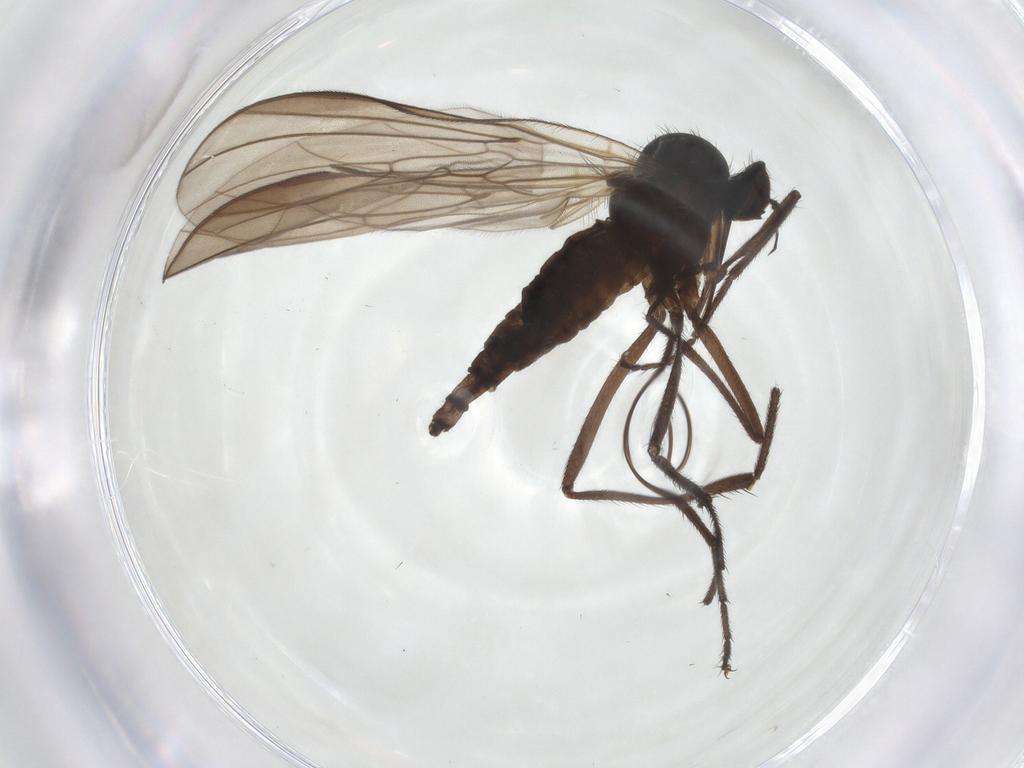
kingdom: Animalia
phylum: Arthropoda
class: Insecta
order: Diptera
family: Empididae
